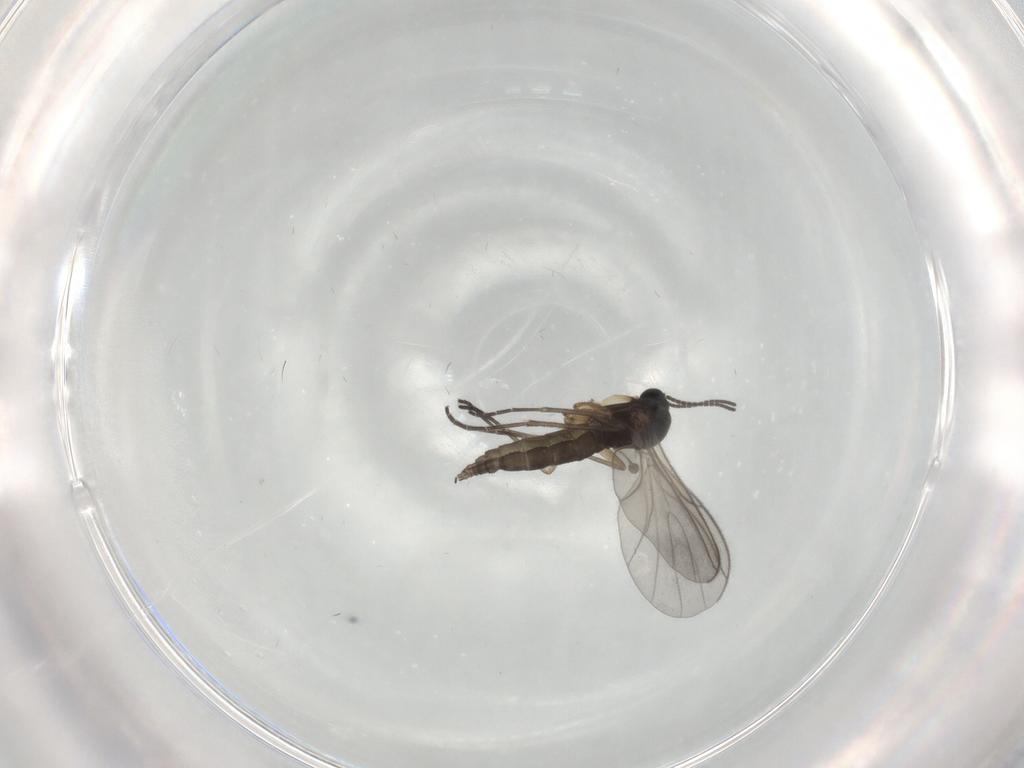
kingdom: Animalia
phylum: Arthropoda
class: Insecta
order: Diptera
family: Sciaridae
